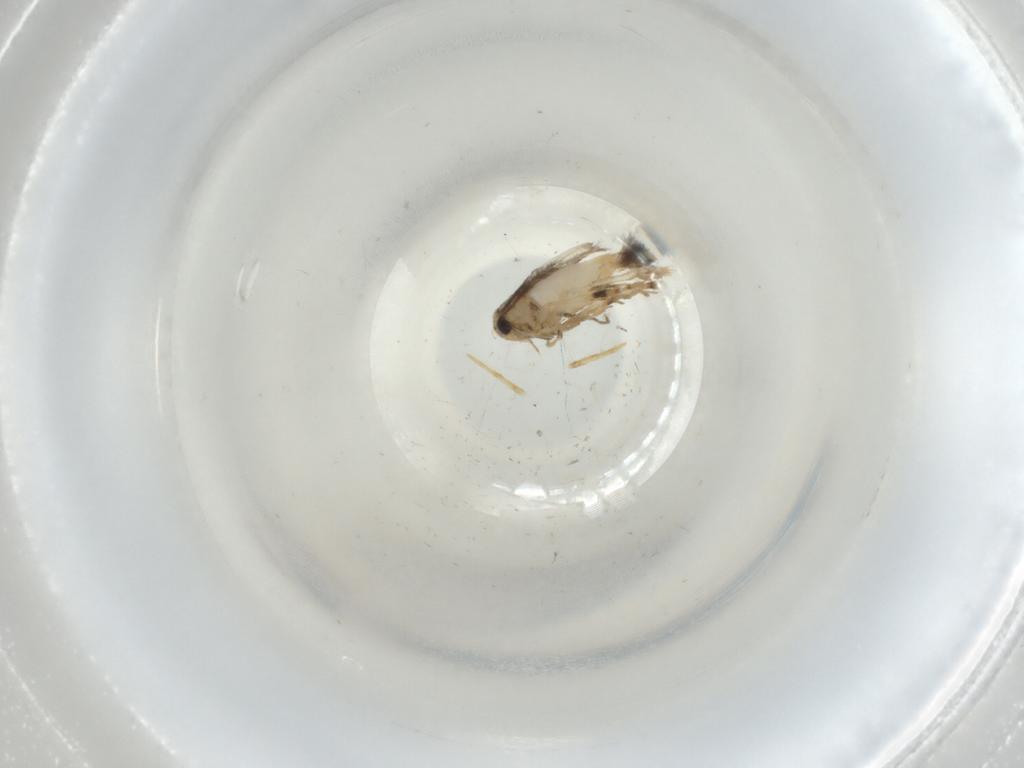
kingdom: Animalia
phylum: Arthropoda
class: Insecta
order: Lepidoptera
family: Noctuidae
